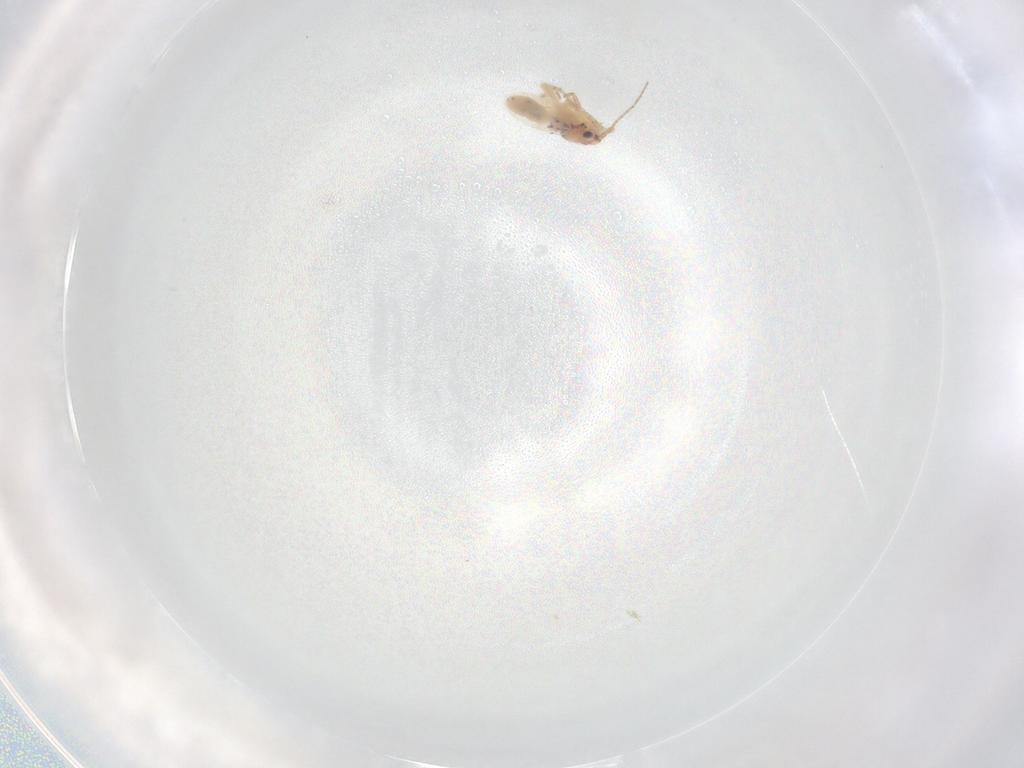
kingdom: Animalia
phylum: Arthropoda
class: Insecta
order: Psocodea
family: Lepidopsocidae
